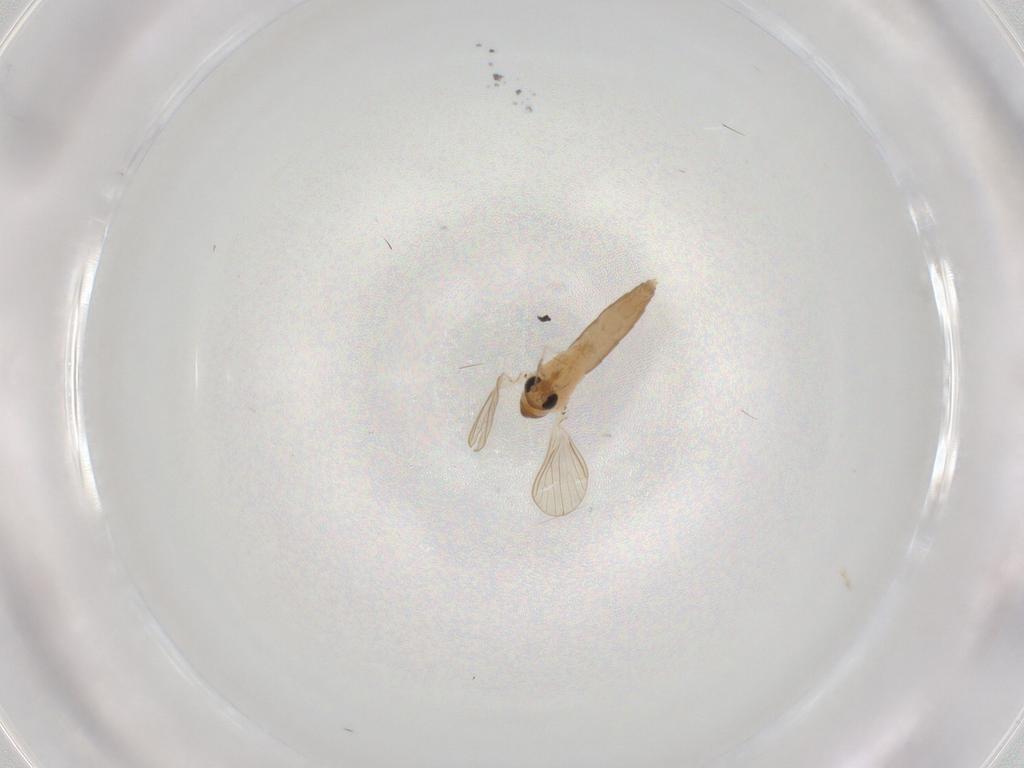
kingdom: Animalia
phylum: Arthropoda
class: Insecta
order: Diptera
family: Psychodidae
